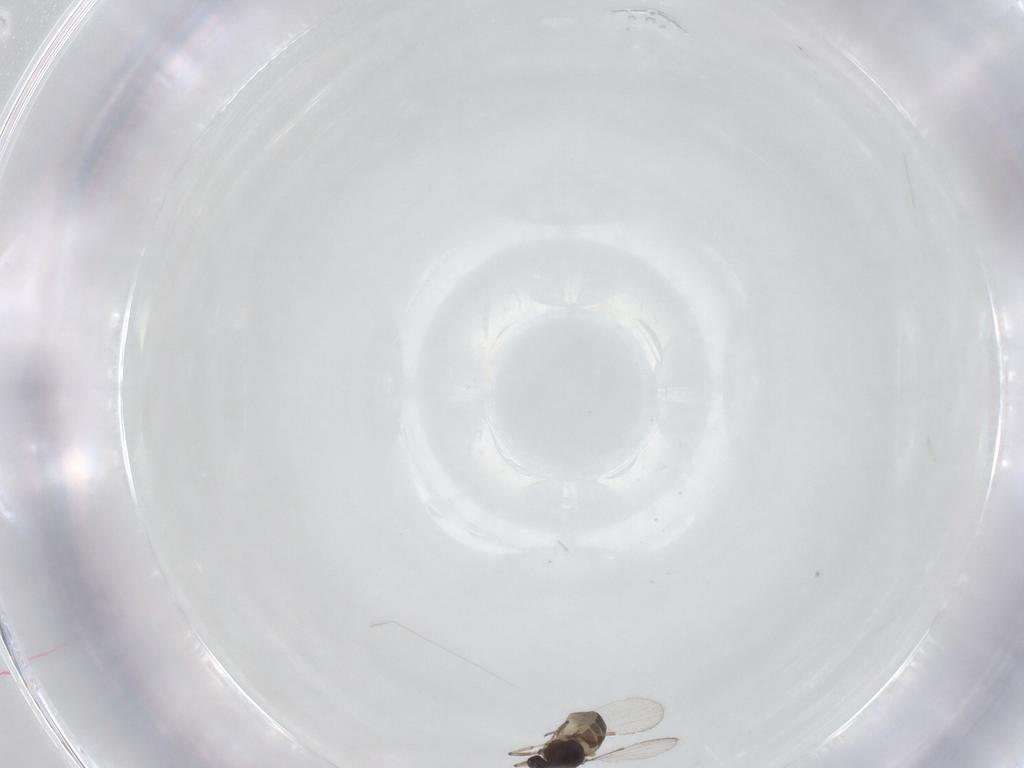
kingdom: Animalia
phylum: Arthropoda
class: Insecta
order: Diptera
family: Ceratopogonidae
